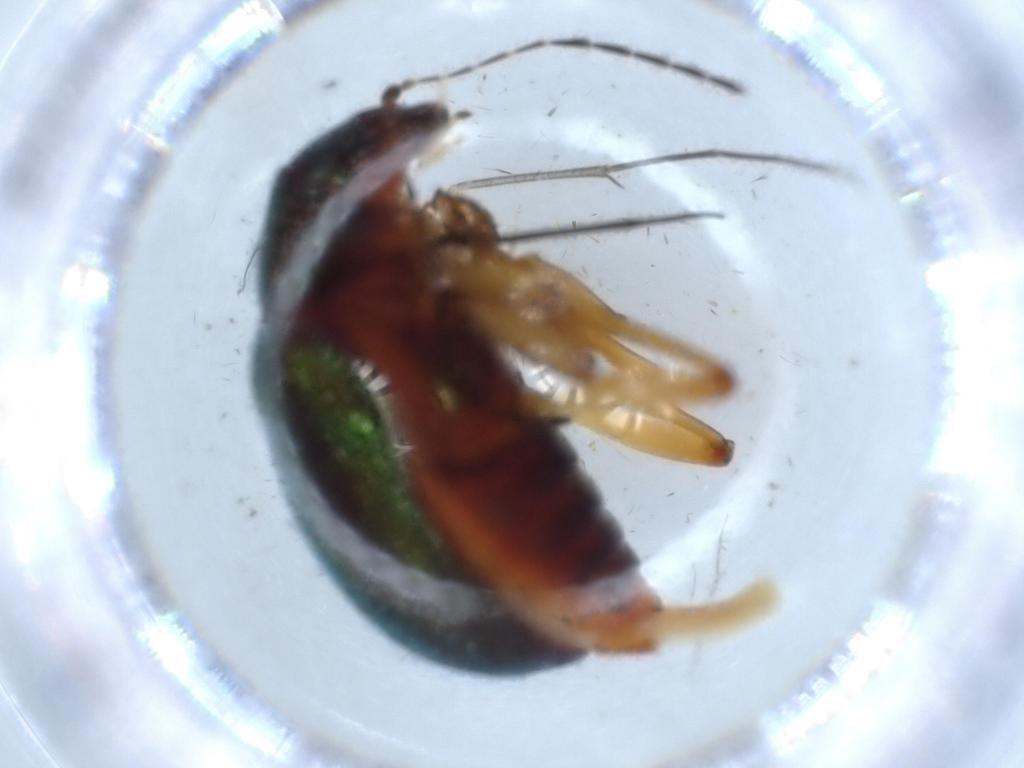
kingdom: Animalia
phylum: Arthropoda
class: Insecta
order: Coleoptera
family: Chrysomelidae
